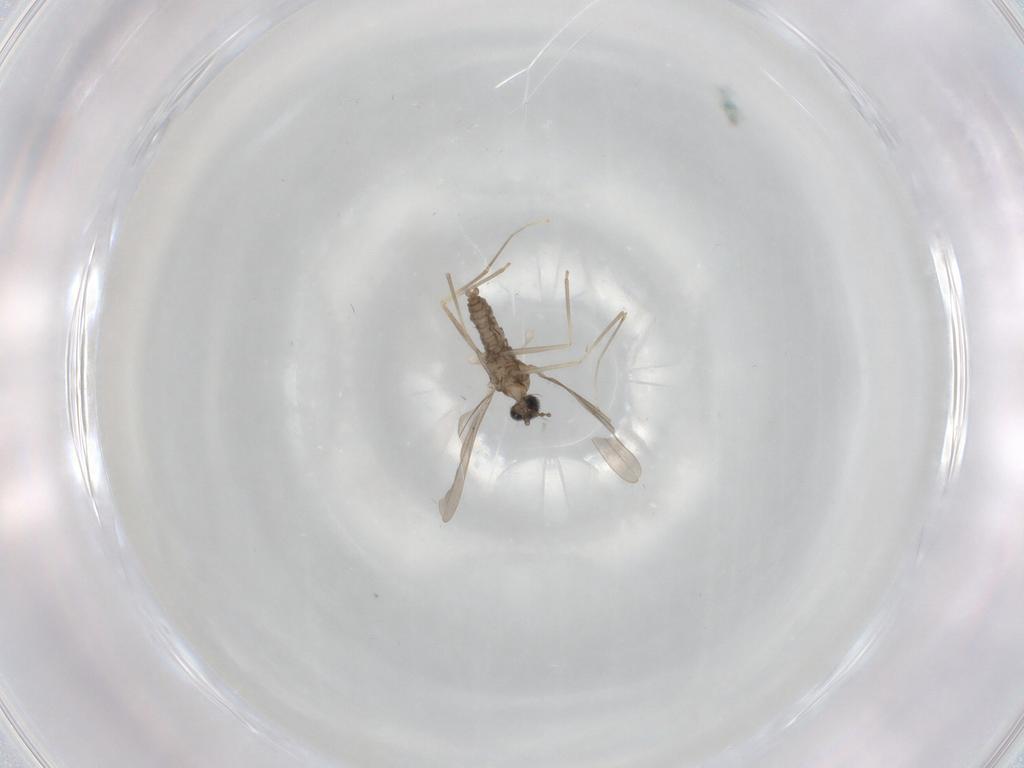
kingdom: Animalia
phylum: Arthropoda
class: Insecta
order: Diptera
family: Cecidomyiidae
